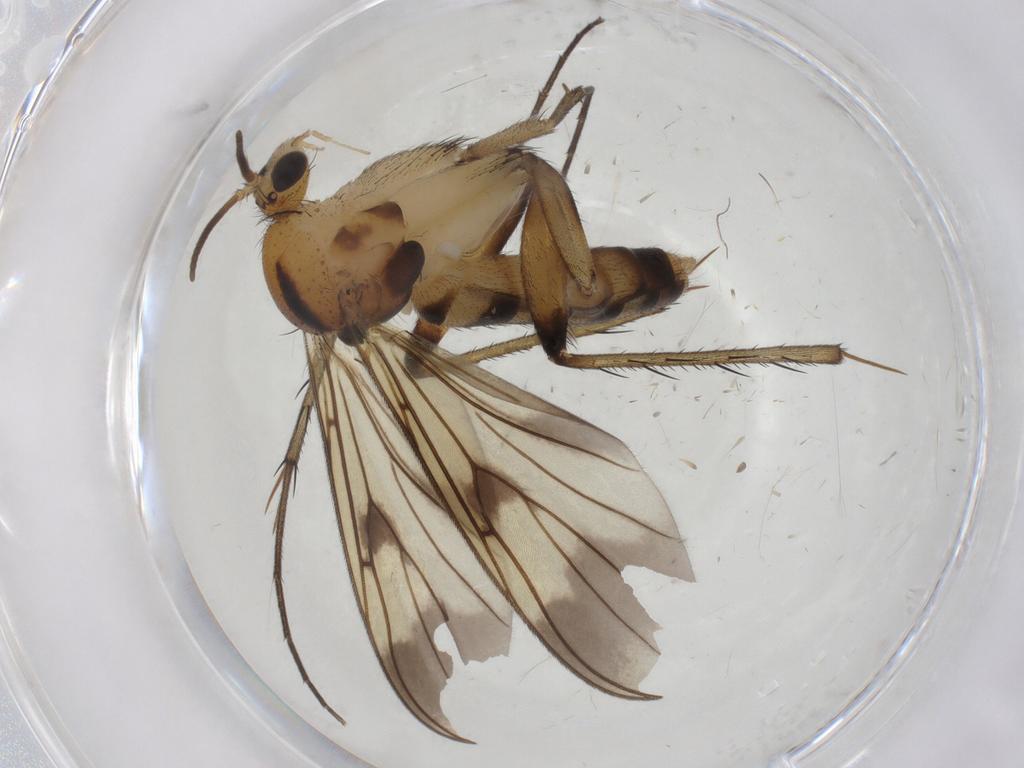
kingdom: Animalia
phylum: Arthropoda
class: Insecta
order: Diptera
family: Mycetophilidae
